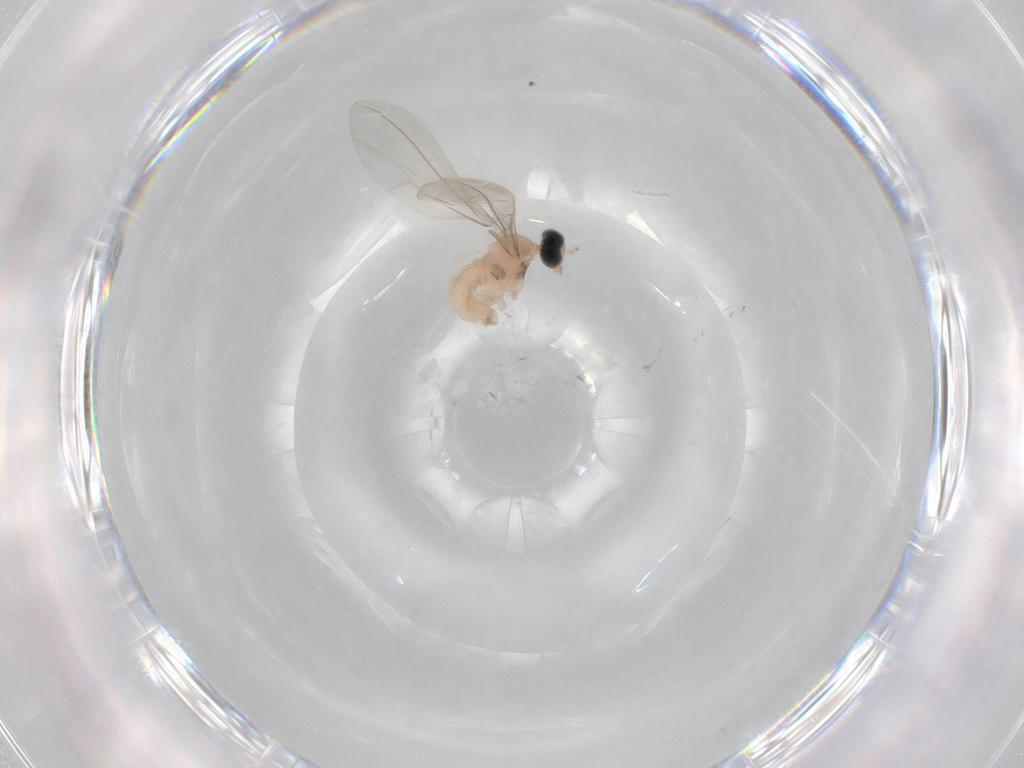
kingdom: Animalia
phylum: Arthropoda
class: Insecta
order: Diptera
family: Cecidomyiidae
